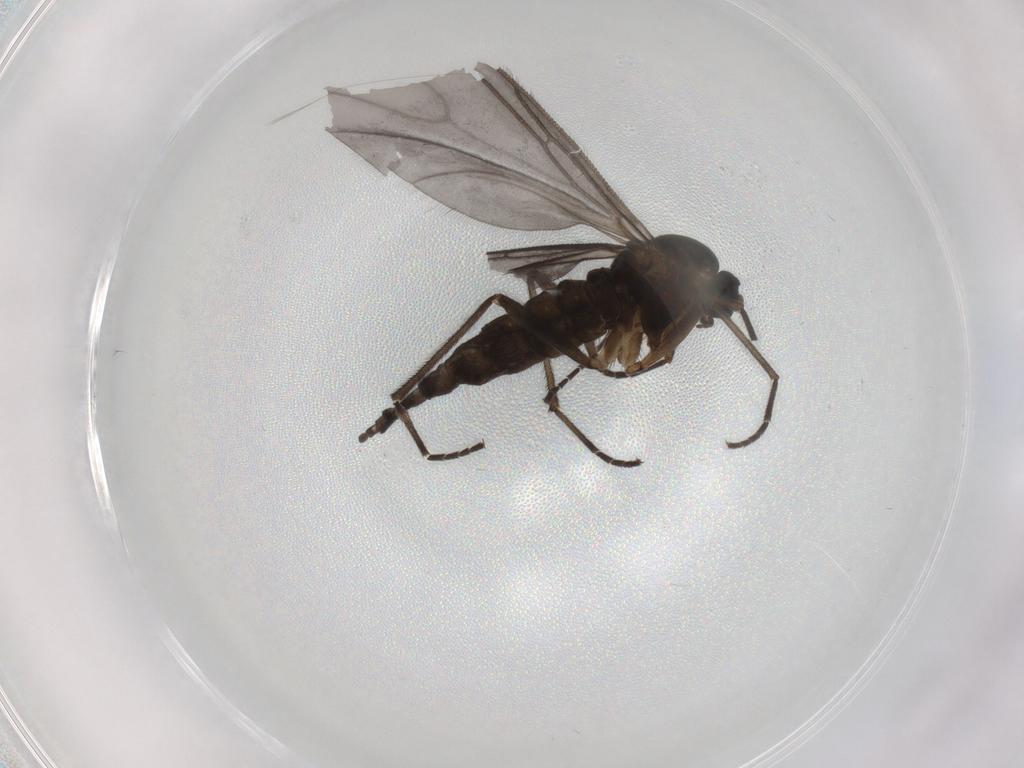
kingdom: Animalia
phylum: Arthropoda
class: Insecta
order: Diptera
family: Sciaridae
